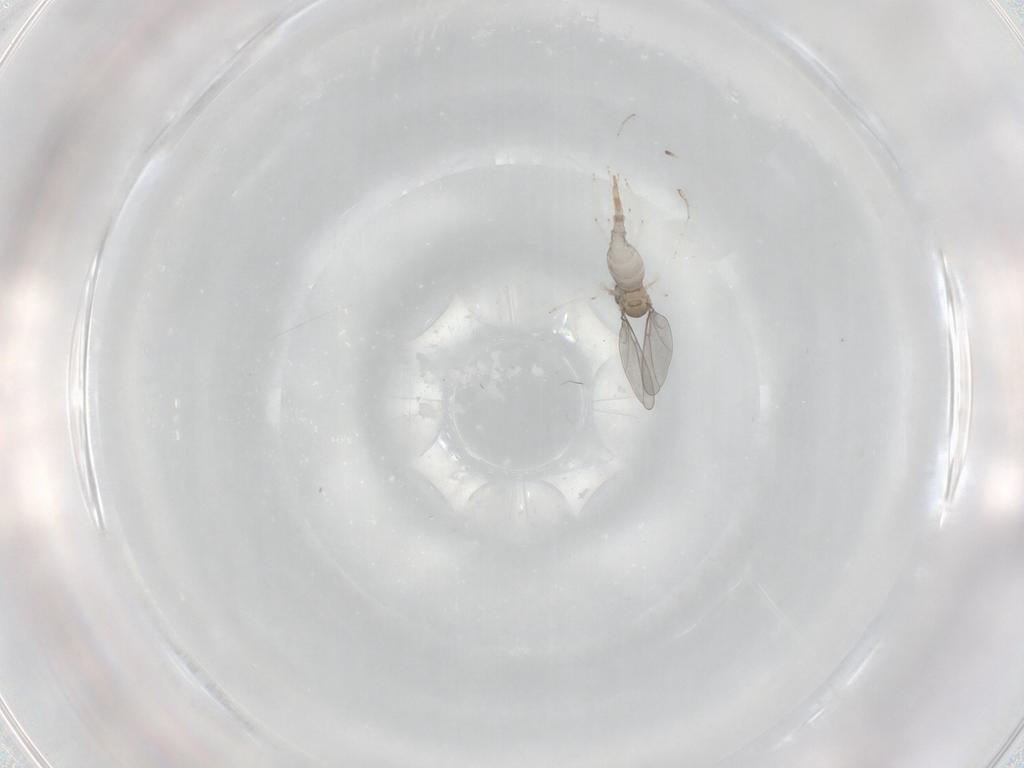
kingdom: Animalia
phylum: Arthropoda
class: Insecta
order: Diptera
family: Cecidomyiidae
